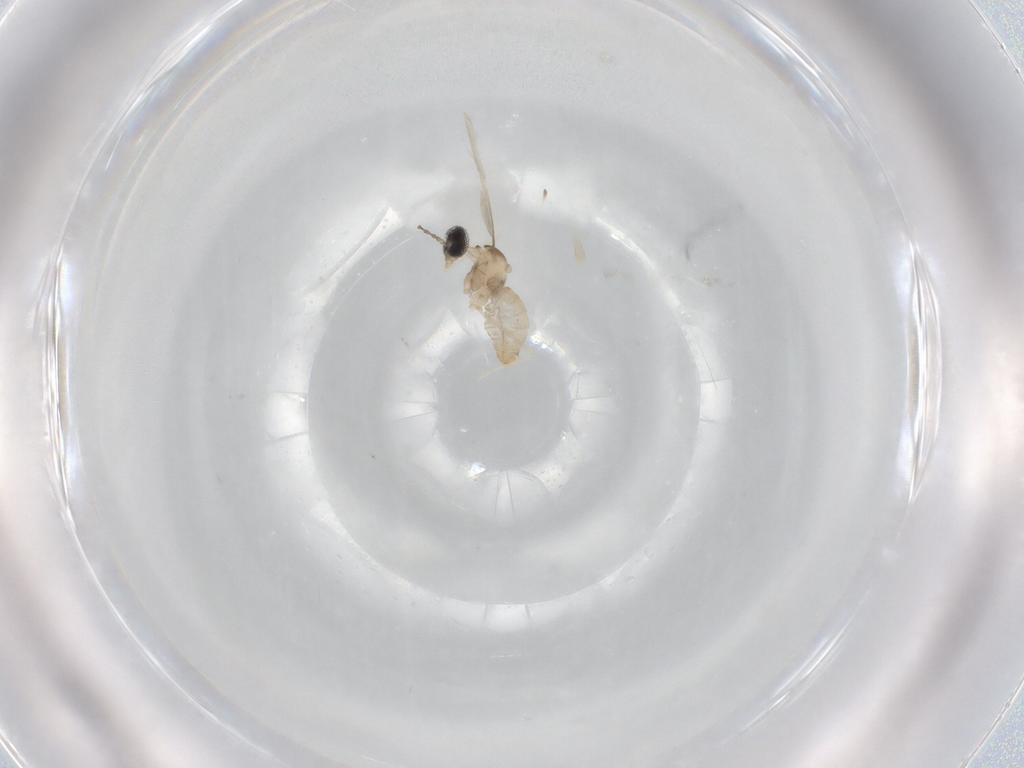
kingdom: Animalia
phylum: Arthropoda
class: Insecta
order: Diptera
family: Cecidomyiidae
